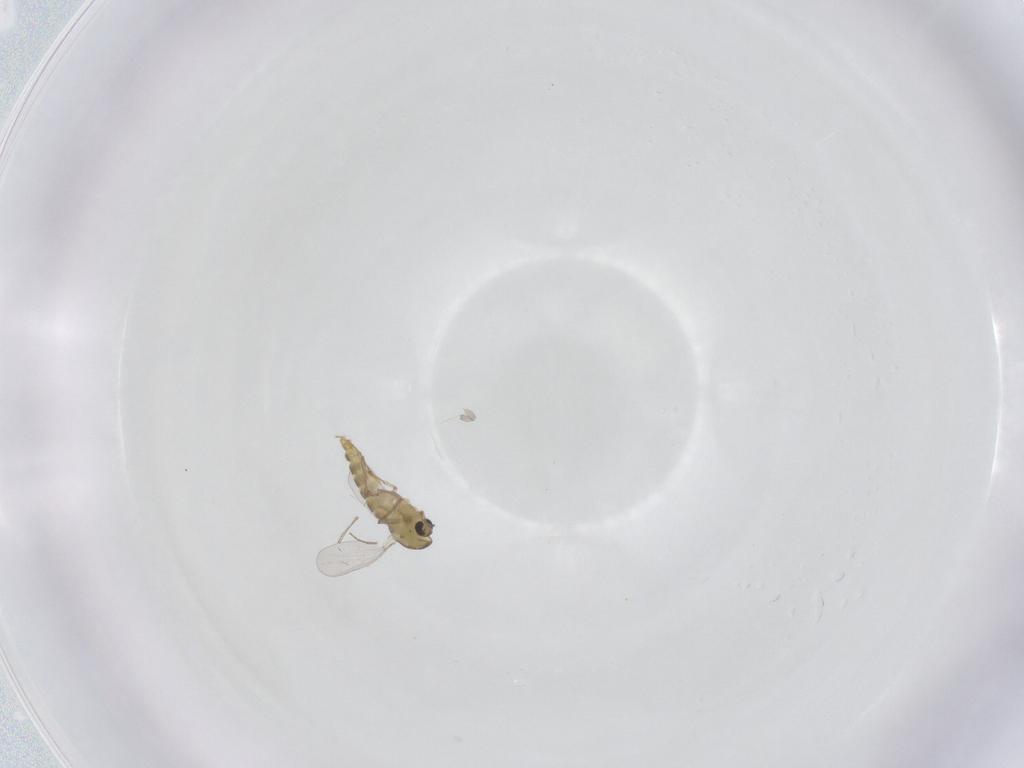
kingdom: Animalia
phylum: Arthropoda
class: Insecta
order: Diptera
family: Chironomidae
